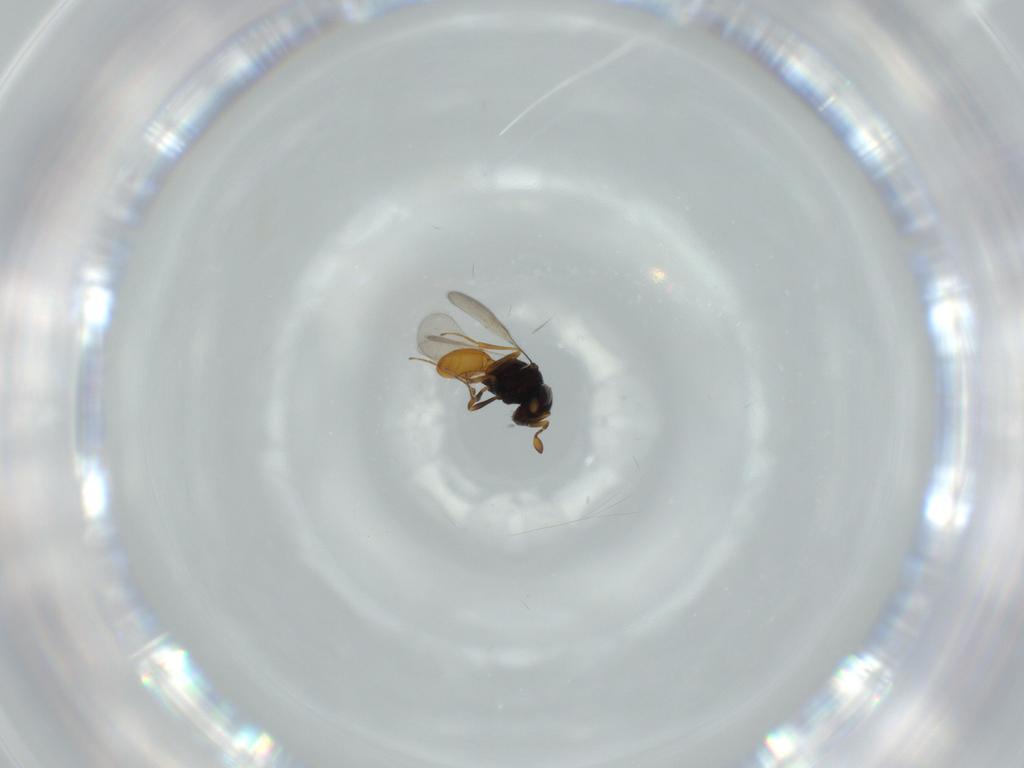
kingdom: Animalia
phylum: Arthropoda
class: Insecta
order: Hymenoptera
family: Scelionidae
